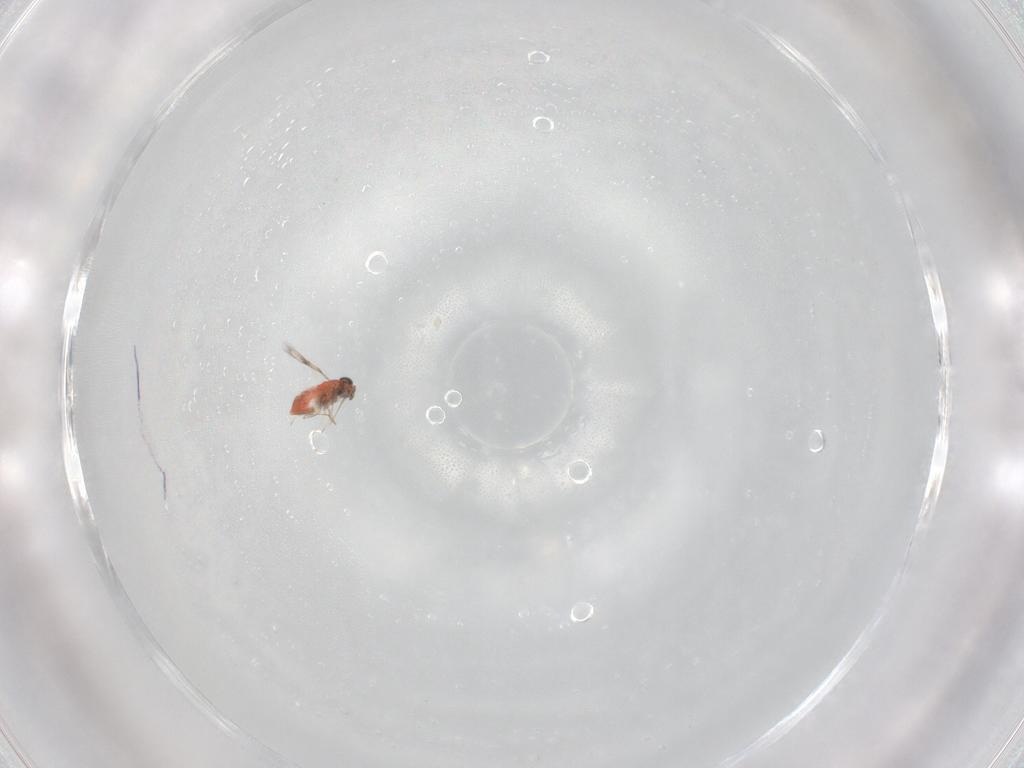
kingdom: Animalia
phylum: Arthropoda
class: Insecta
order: Hymenoptera
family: Trichogrammatidae
